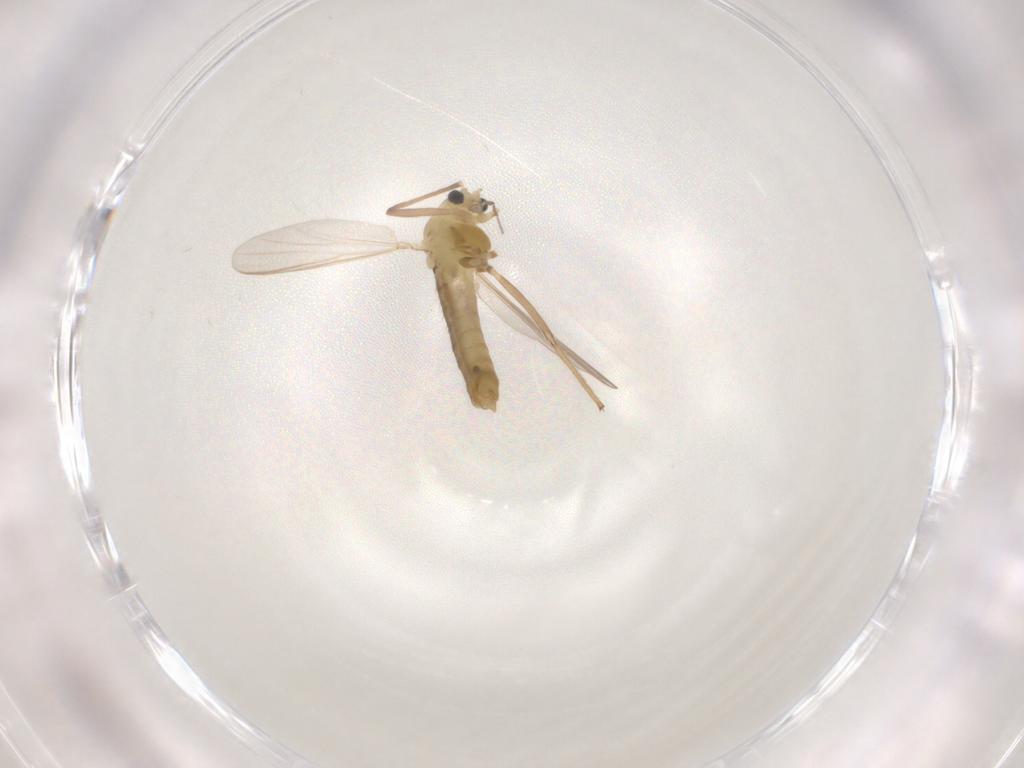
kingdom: Animalia
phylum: Arthropoda
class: Insecta
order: Diptera
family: Chironomidae
